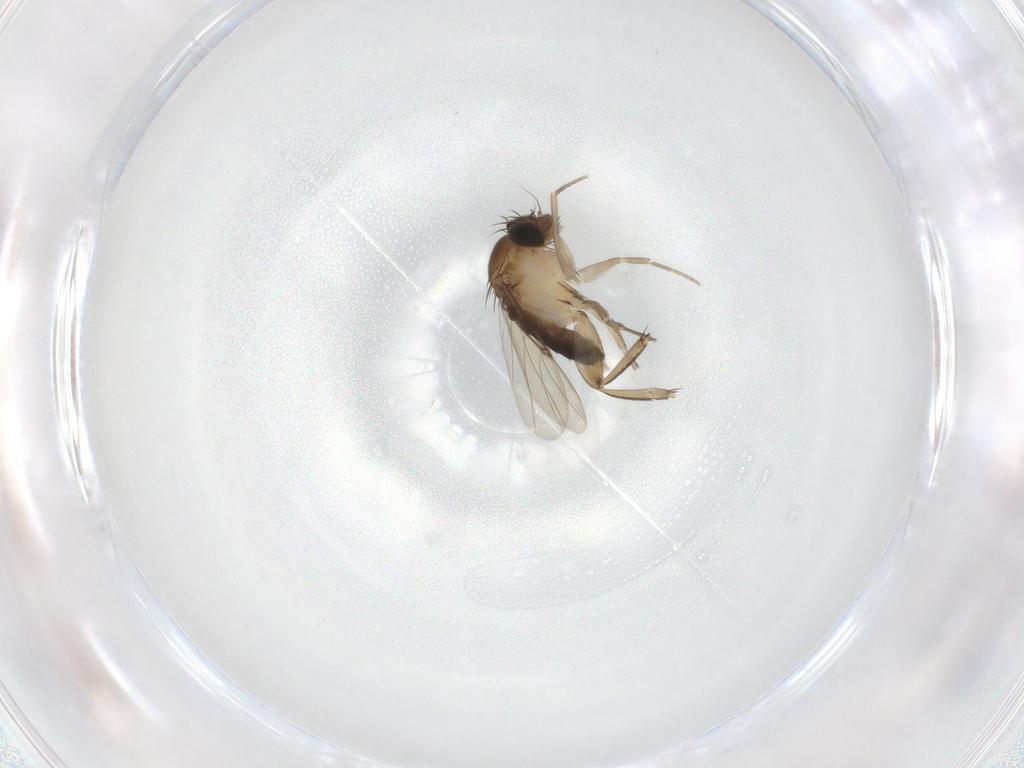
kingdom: Animalia
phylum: Arthropoda
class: Insecta
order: Diptera
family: Phoridae
